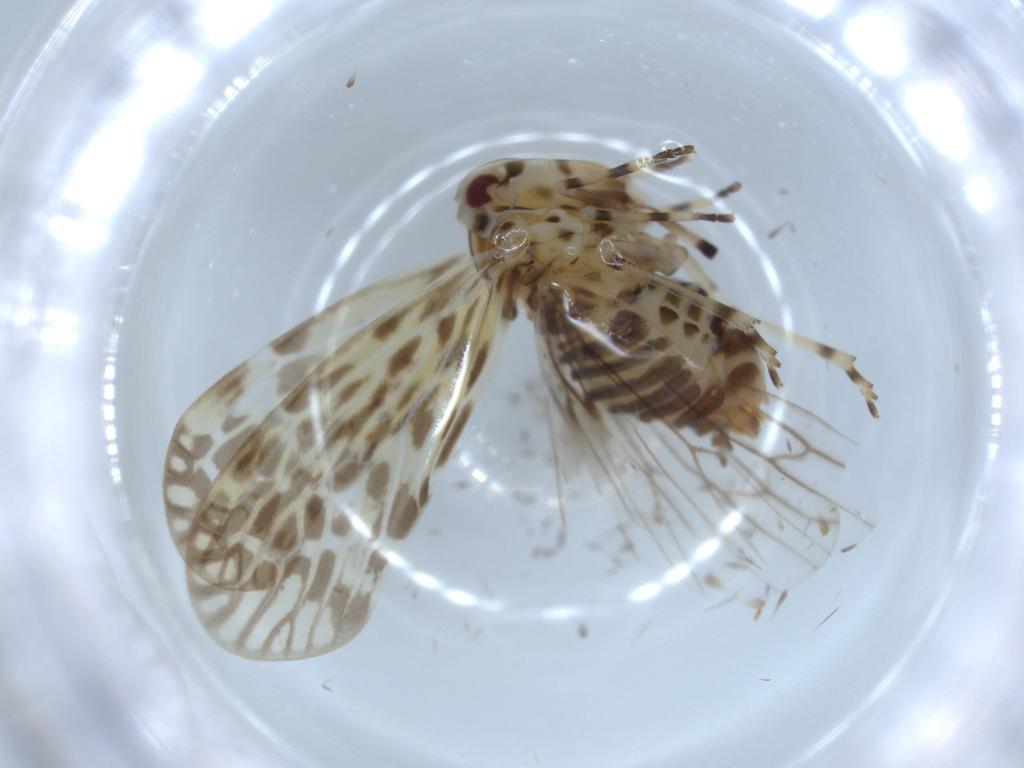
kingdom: Animalia
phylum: Arthropoda
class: Insecta
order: Hemiptera
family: Derbidae
